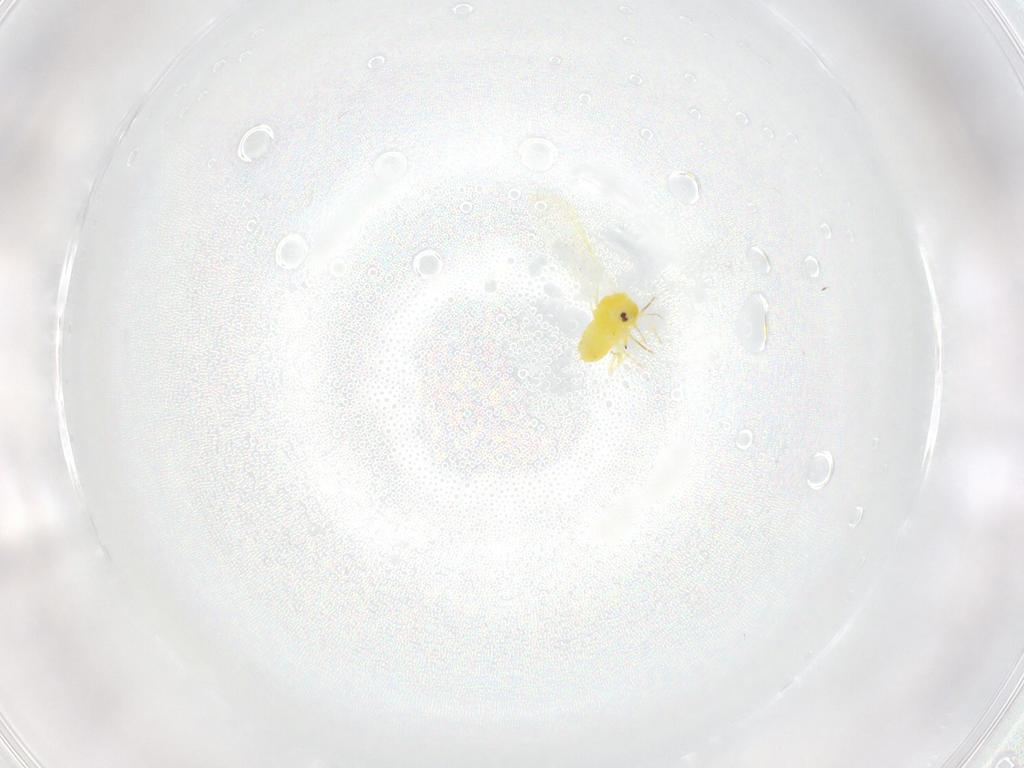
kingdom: Animalia
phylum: Arthropoda
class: Insecta
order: Hemiptera
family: Aleyrodidae
